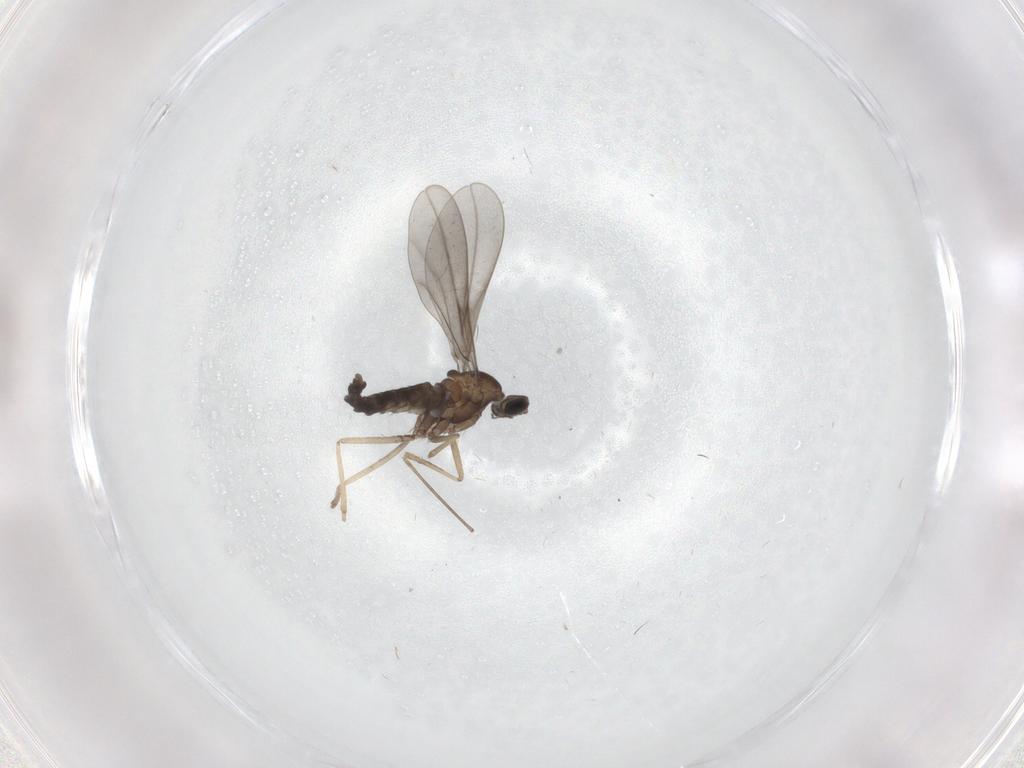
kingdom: Animalia
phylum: Arthropoda
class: Insecta
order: Diptera
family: Cecidomyiidae
